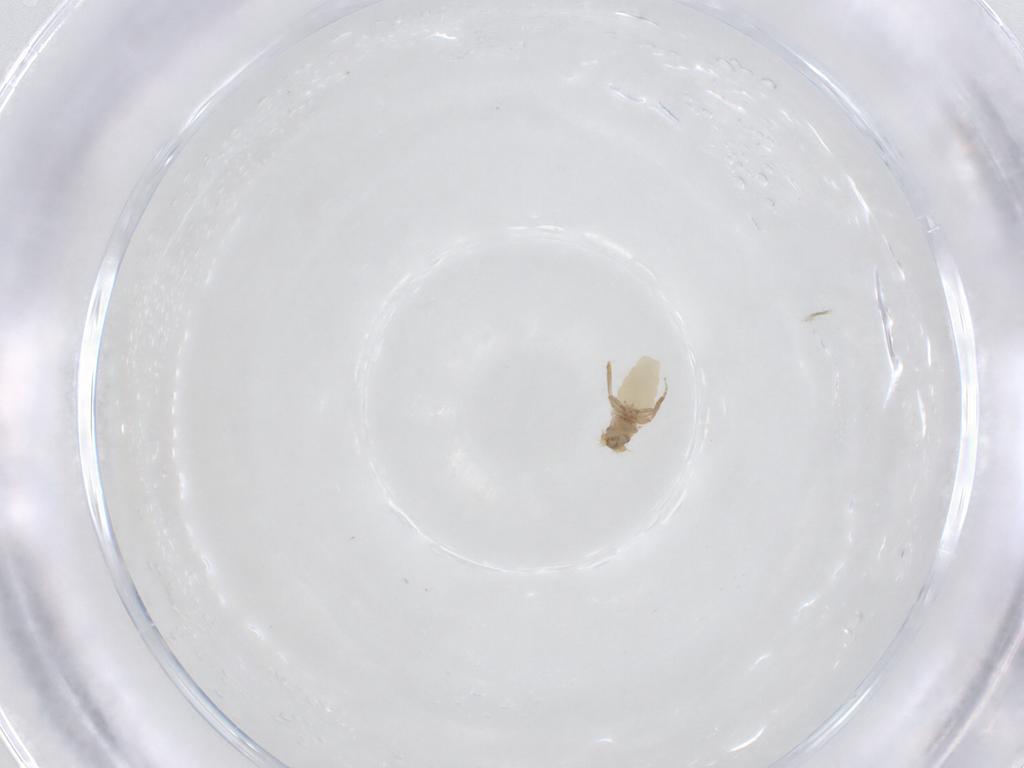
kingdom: Animalia
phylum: Arthropoda
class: Insecta
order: Diptera
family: Phoridae
